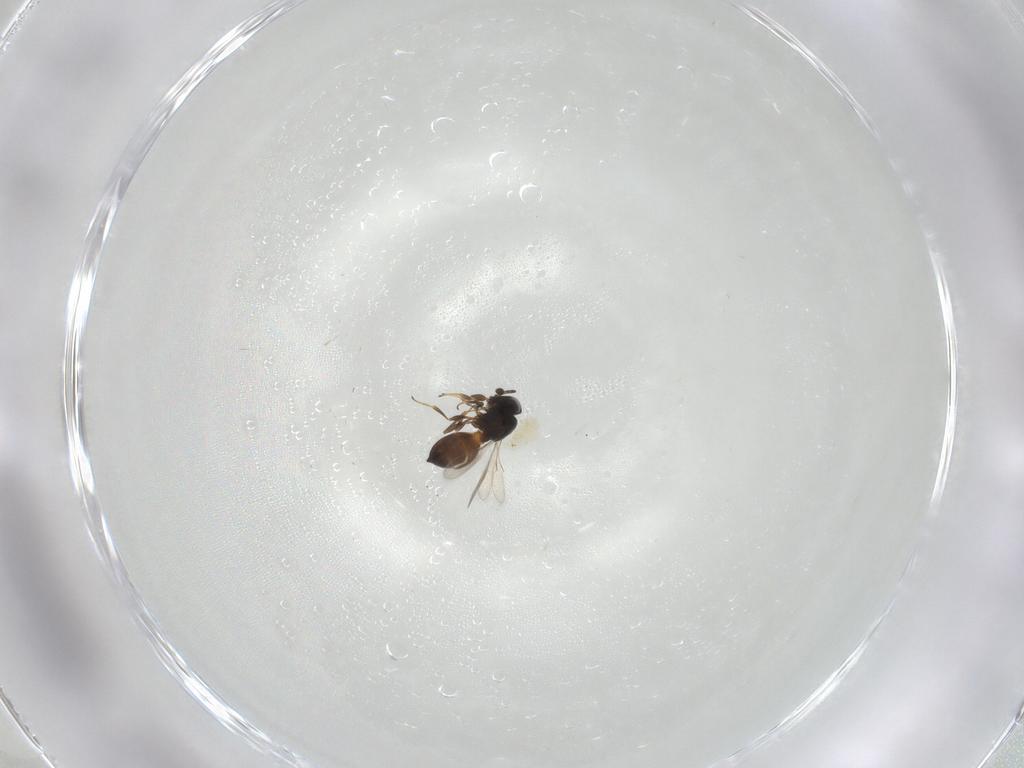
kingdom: Animalia
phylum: Arthropoda
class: Insecta
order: Hymenoptera
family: Scelionidae
